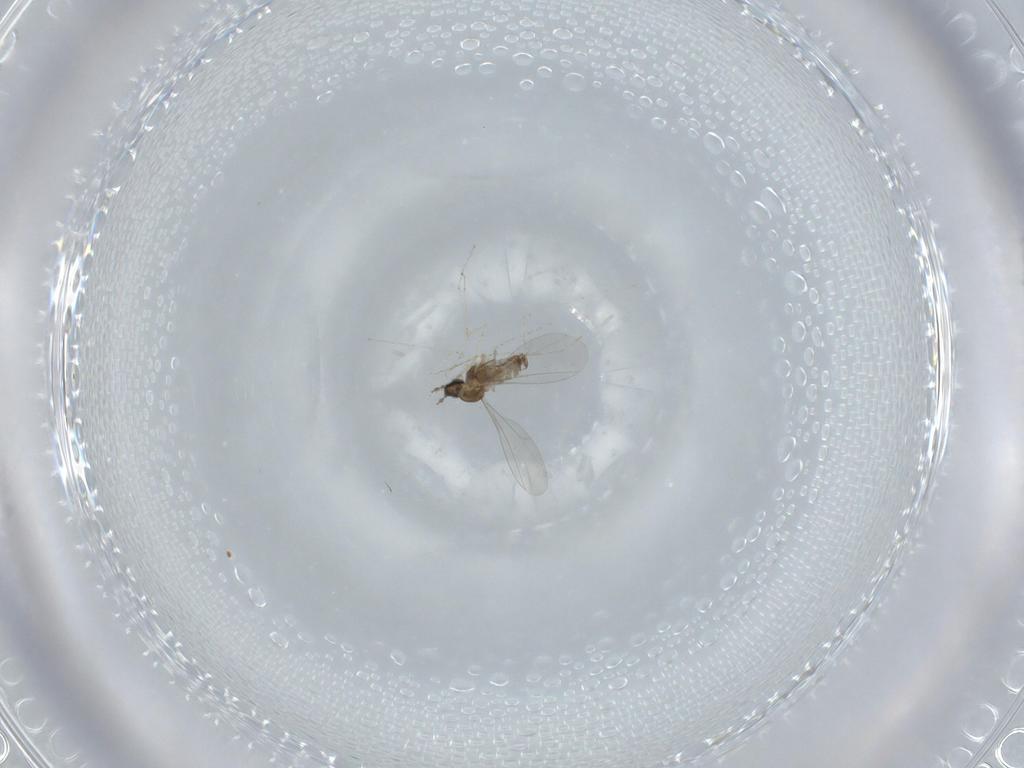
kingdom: Animalia
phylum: Arthropoda
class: Insecta
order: Diptera
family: Cecidomyiidae
